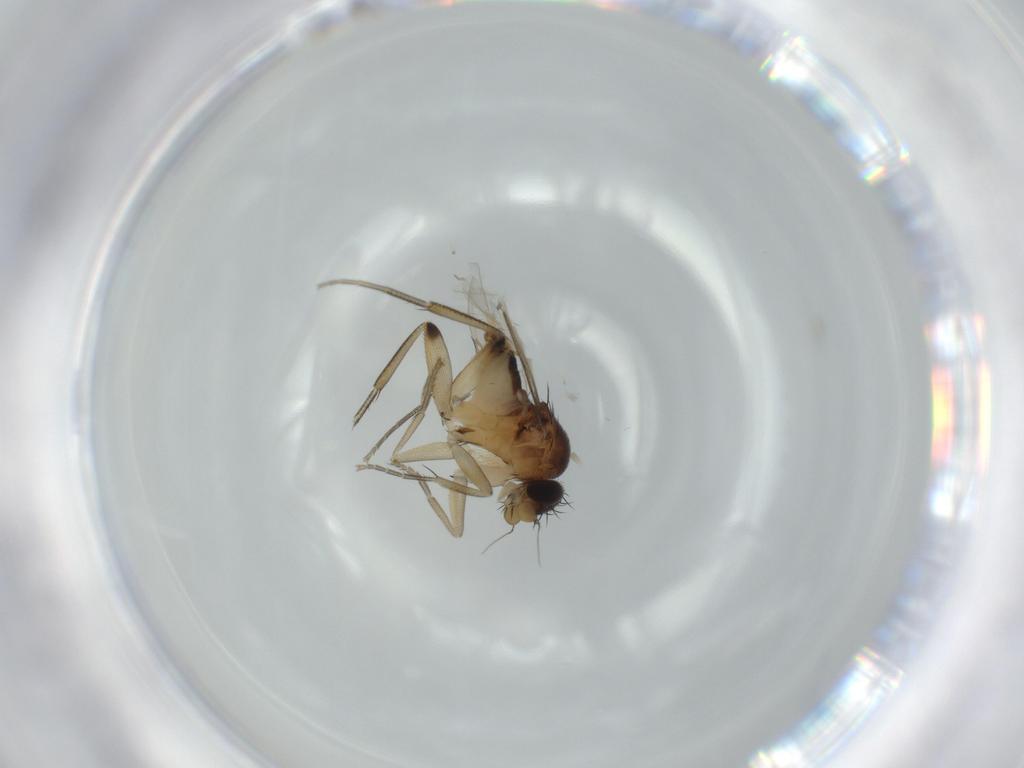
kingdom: Animalia
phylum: Arthropoda
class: Insecta
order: Diptera
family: Phoridae
